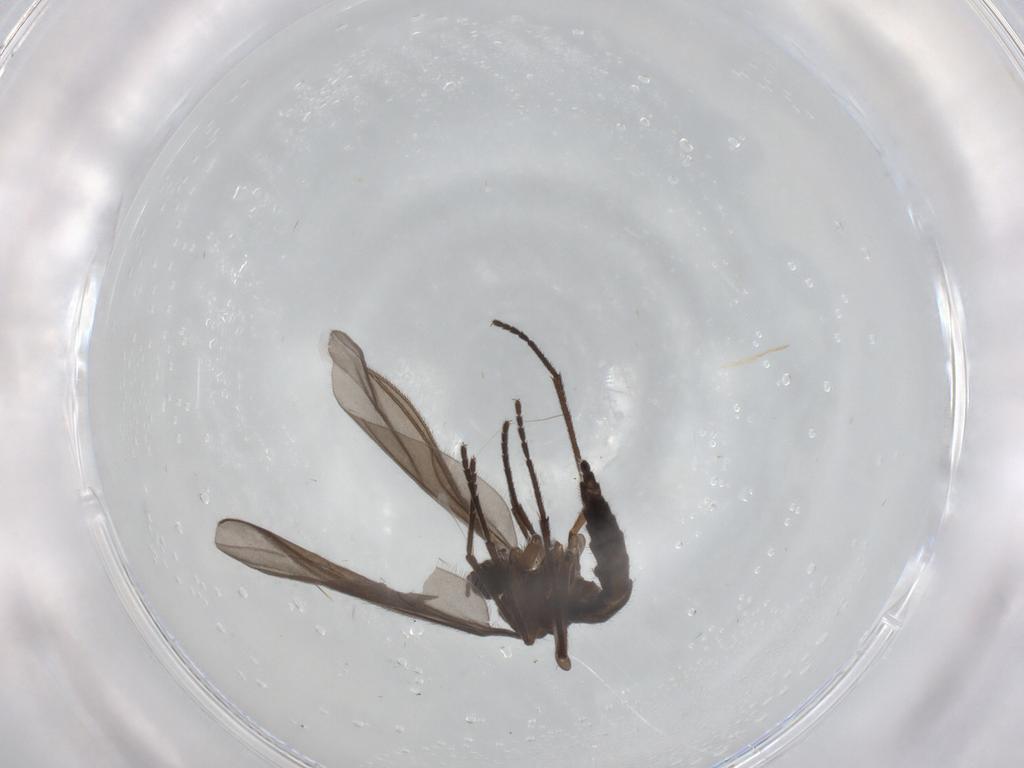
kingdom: Animalia
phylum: Arthropoda
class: Insecta
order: Diptera
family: Sciaridae
